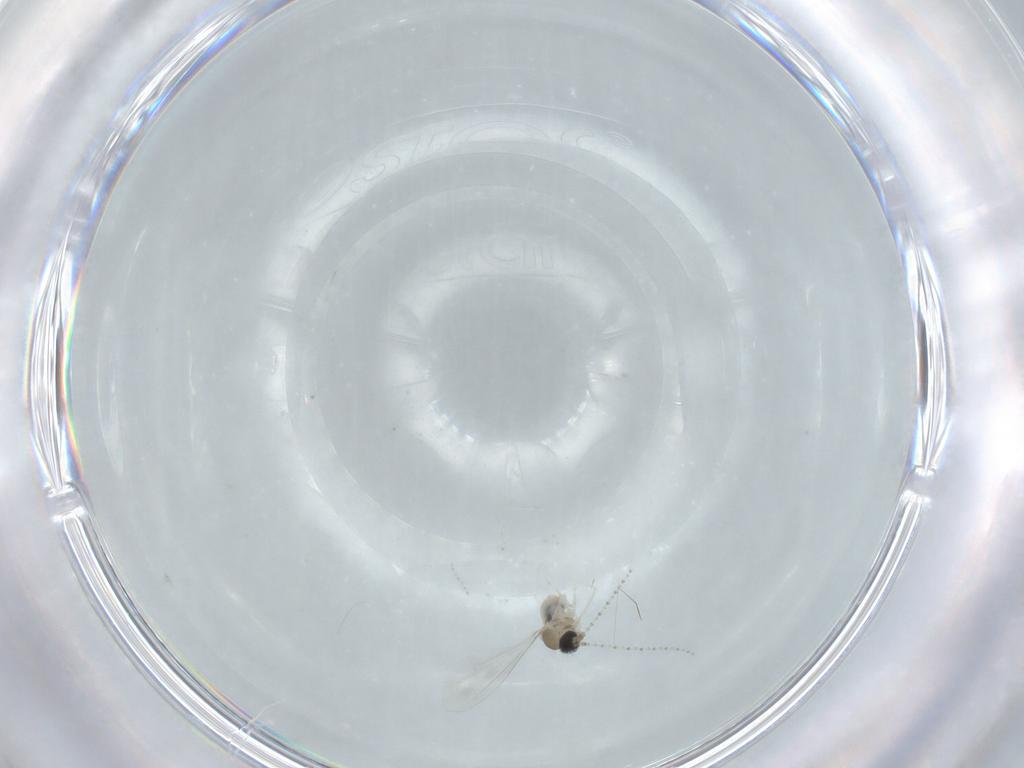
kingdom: Animalia
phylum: Arthropoda
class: Insecta
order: Diptera
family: Cecidomyiidae
